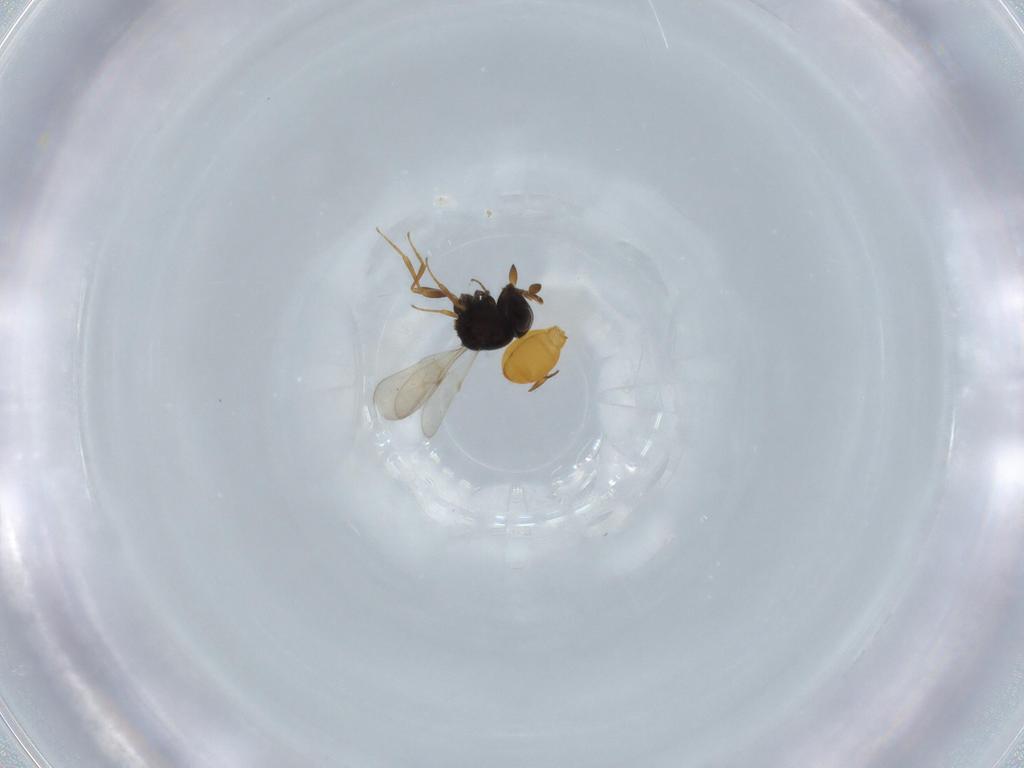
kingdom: Animalia
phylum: Arthropoda
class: Insecta
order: Hymenoptera
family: Scelionidae
